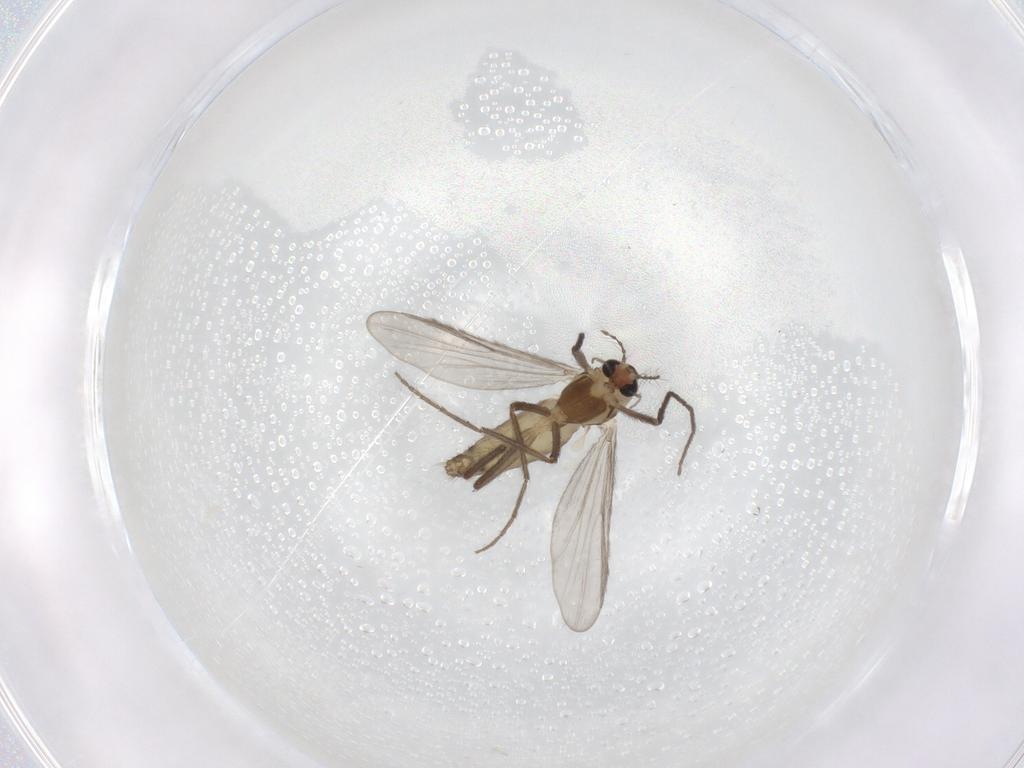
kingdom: Animalia
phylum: Arthropoda
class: Insecta
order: Diptera
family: Chironomidae
